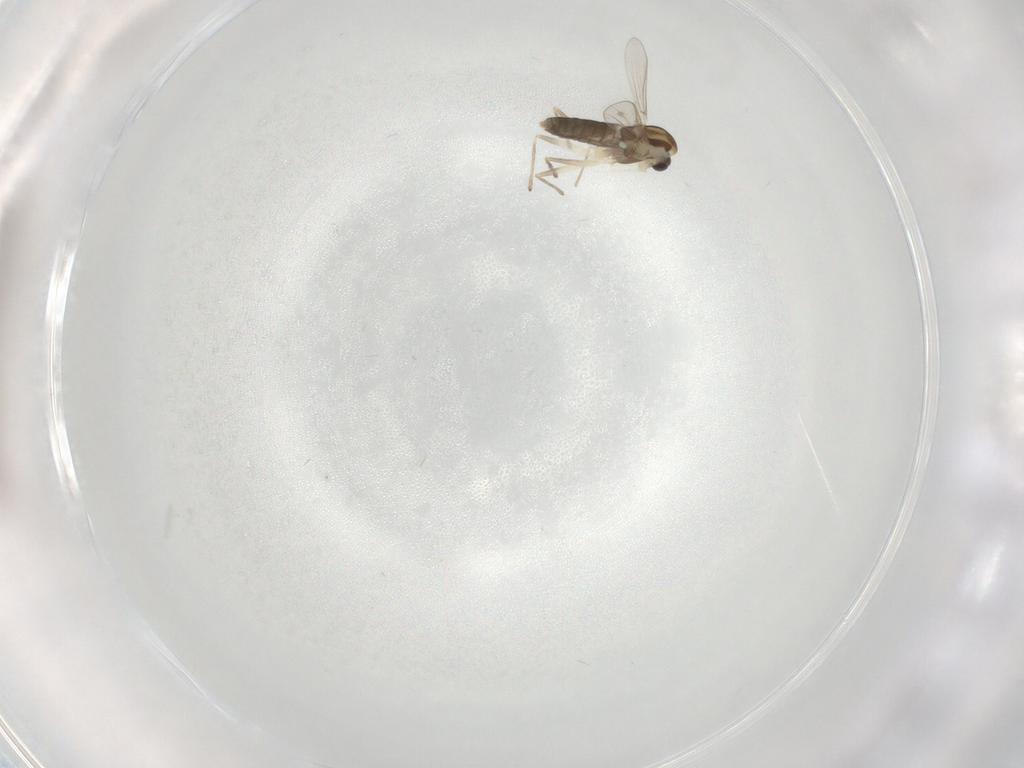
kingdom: Animalia
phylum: Arthropoda
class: Insecta
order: Diptera
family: Chironomidae
